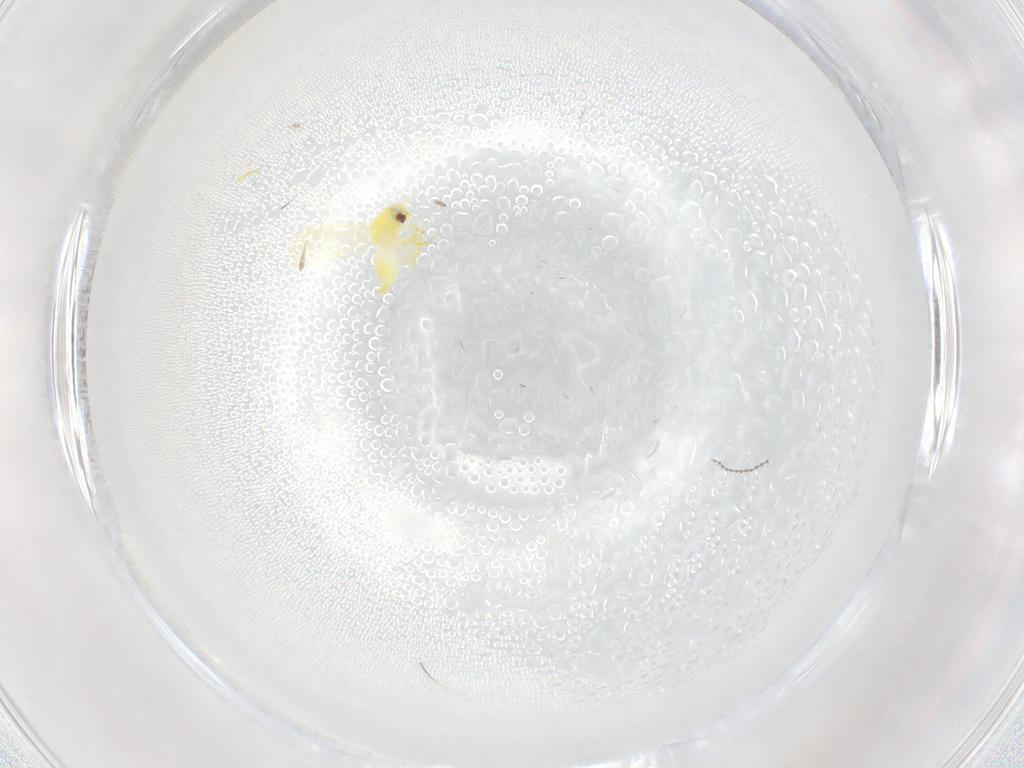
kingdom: Animalia
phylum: Arthropoda
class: Insecta
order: Hemiptera
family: Aleyrodidae
